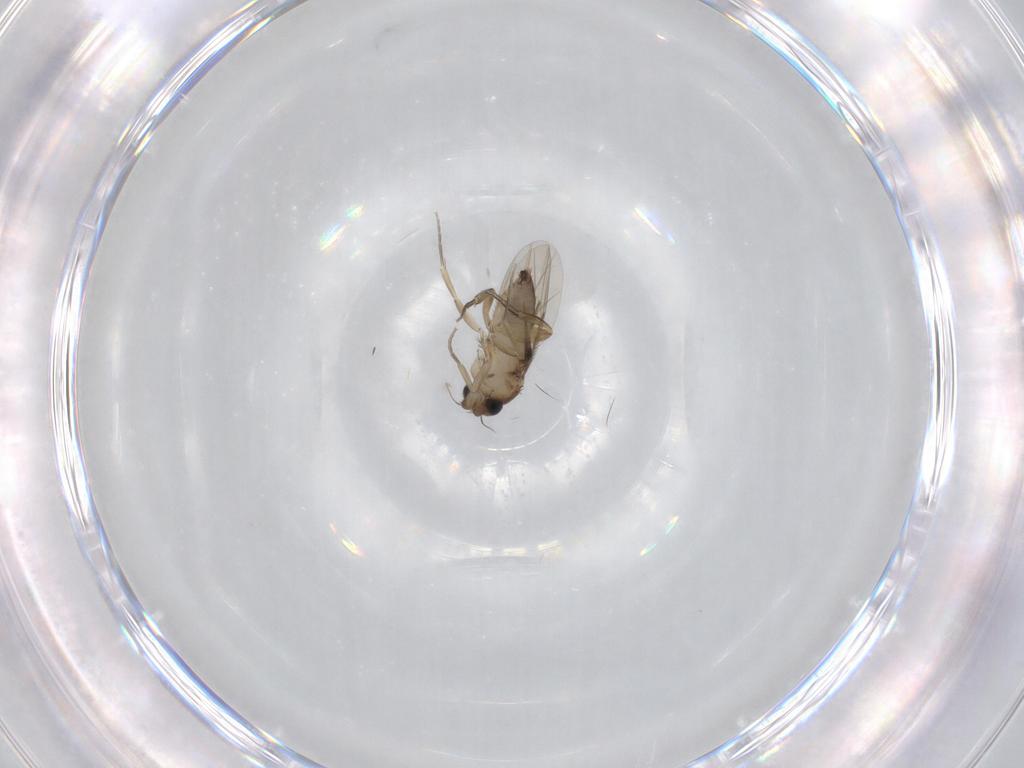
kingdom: Animalia
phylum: Arthropoda
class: Insecta
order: Diptera
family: Phoridae
